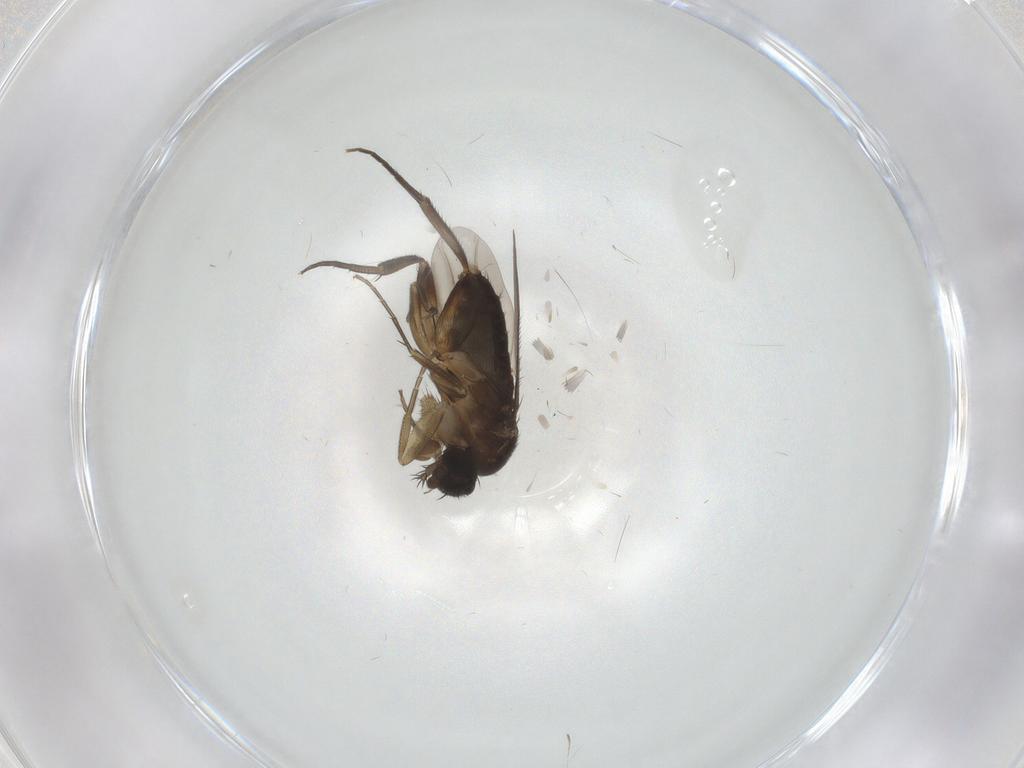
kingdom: Animalia
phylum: Arthropoda
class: Insecta
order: Diptera
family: Phoridae
